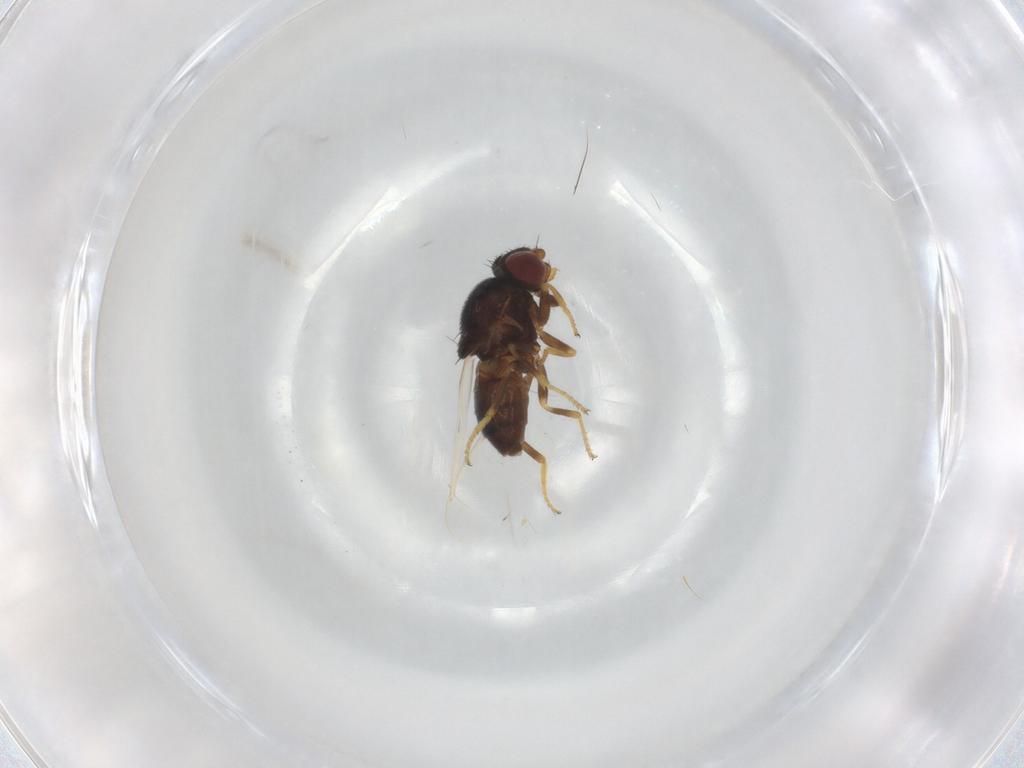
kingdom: Animalia
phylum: Arthropoda
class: Insecta
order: Diptera
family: Chloropidae
